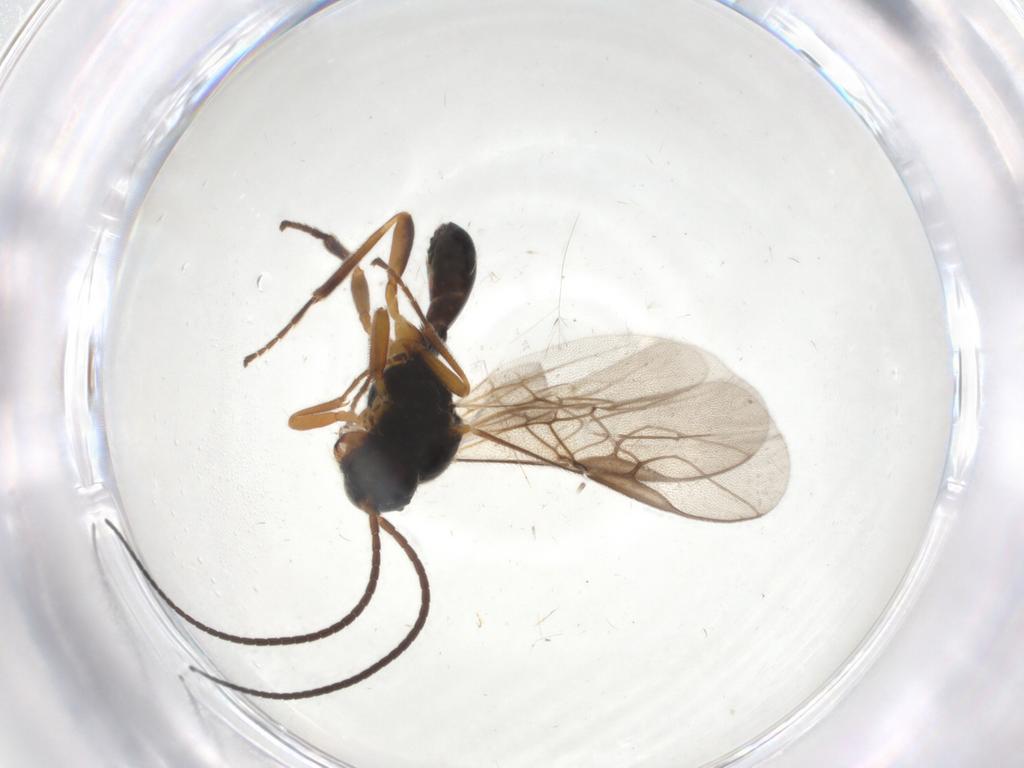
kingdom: Animalia
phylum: Arthropoda
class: Insecta
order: Hymenoptera
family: Braconidae
